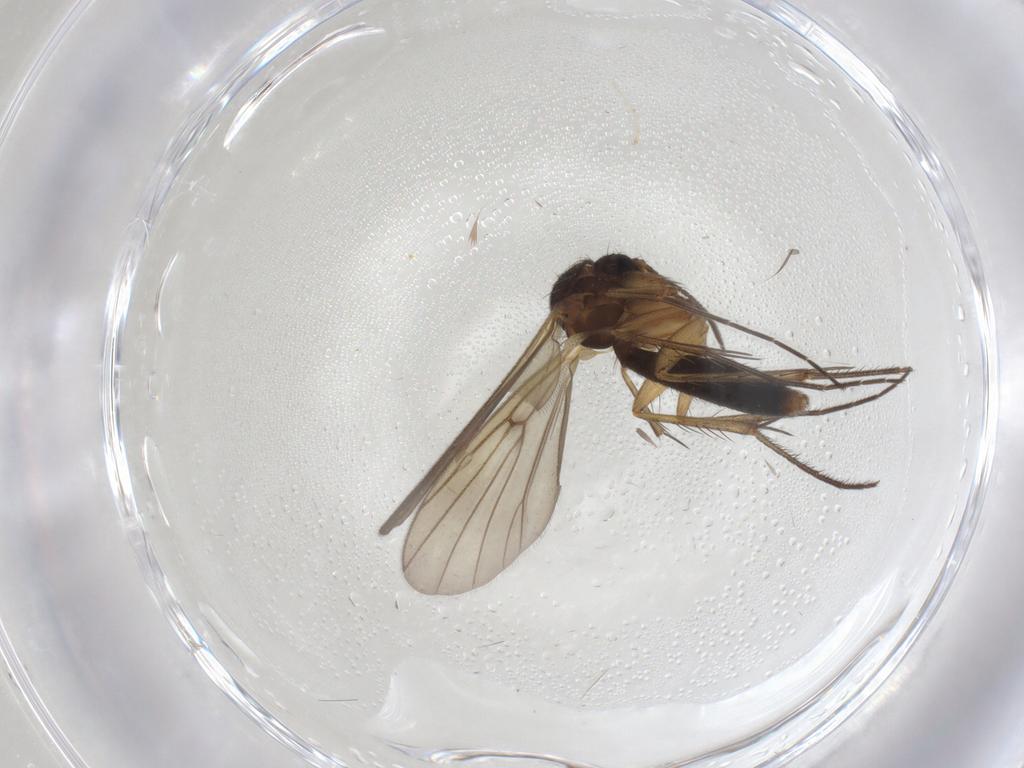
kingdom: Animalia
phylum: Arthropoda
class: Insecta
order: Diptera
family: Mycetophilidae
